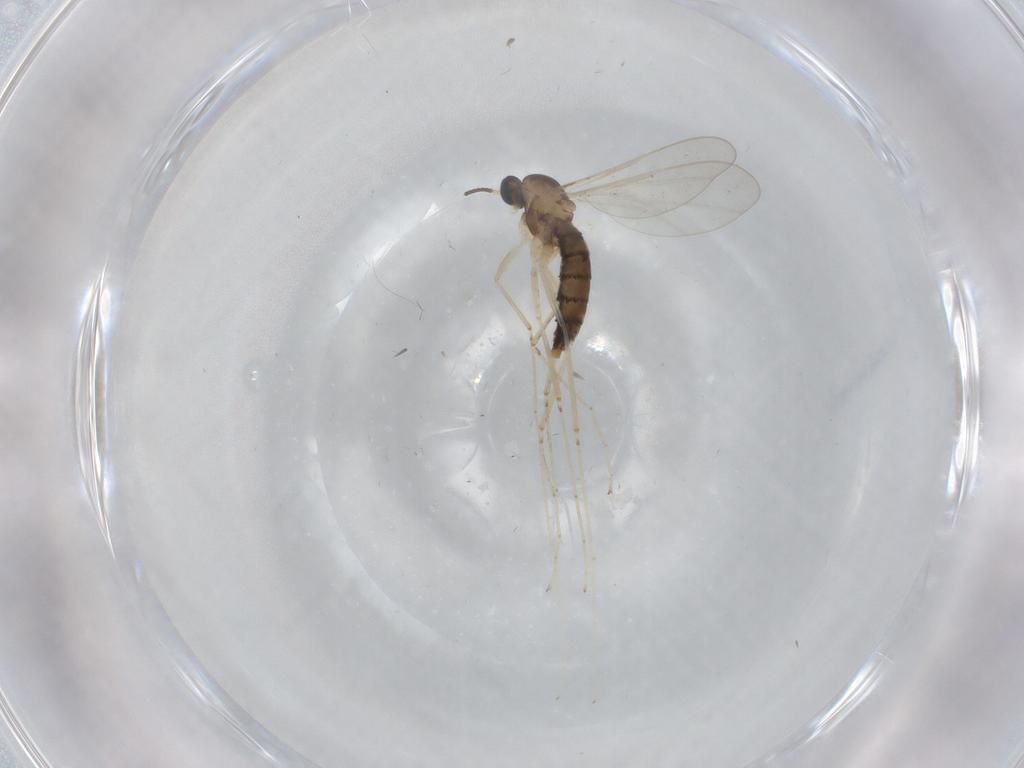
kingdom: Animalia
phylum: Arthropoda
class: Insecta
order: Diptera
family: Cecidomyiidae
